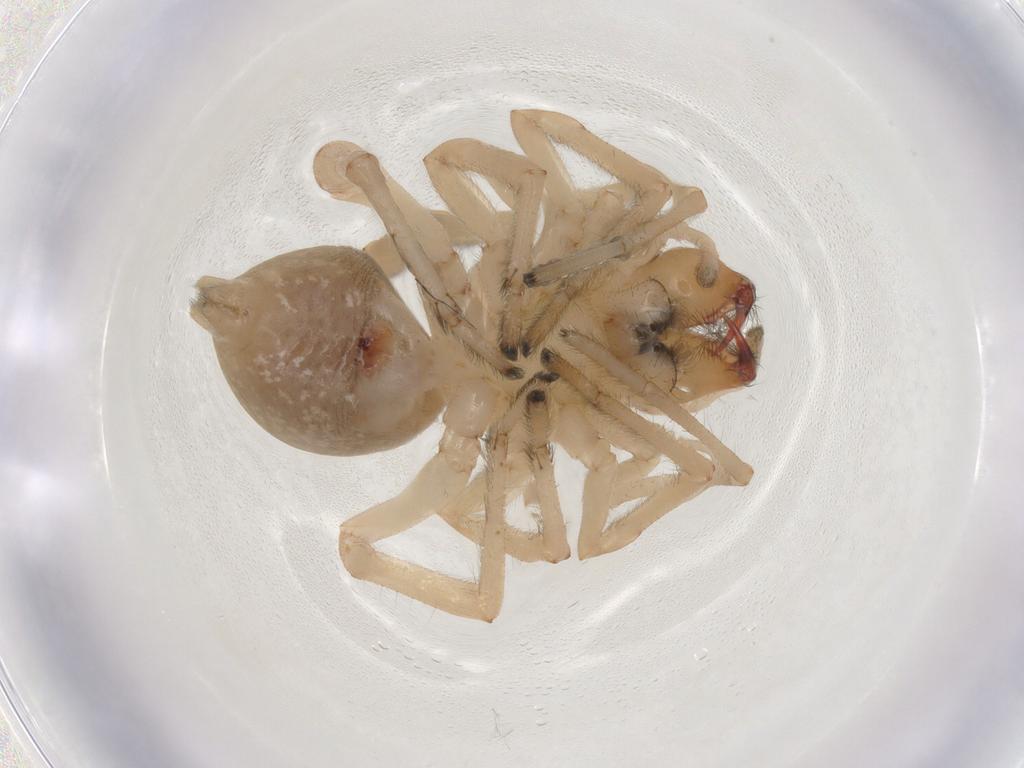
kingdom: Animalia
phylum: Arthropoda
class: Arachnida
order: Araneae
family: Cheiracanthiidae
